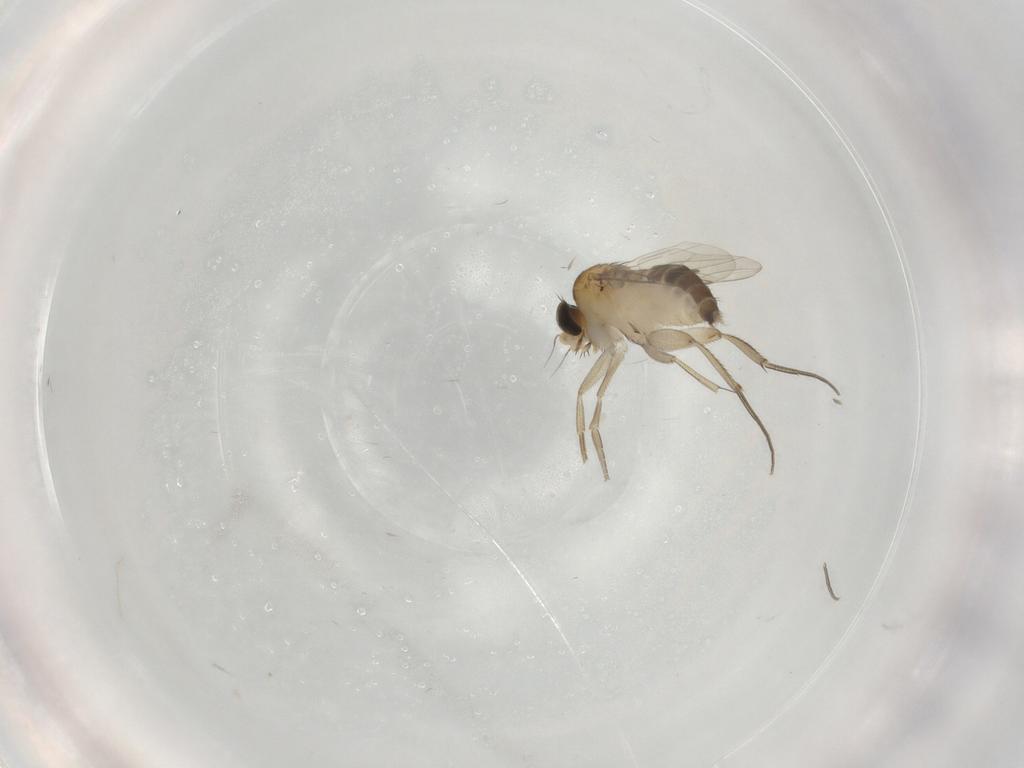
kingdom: Animalia
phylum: Arthropoda
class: Insecta
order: Diptera
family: Phoridae
